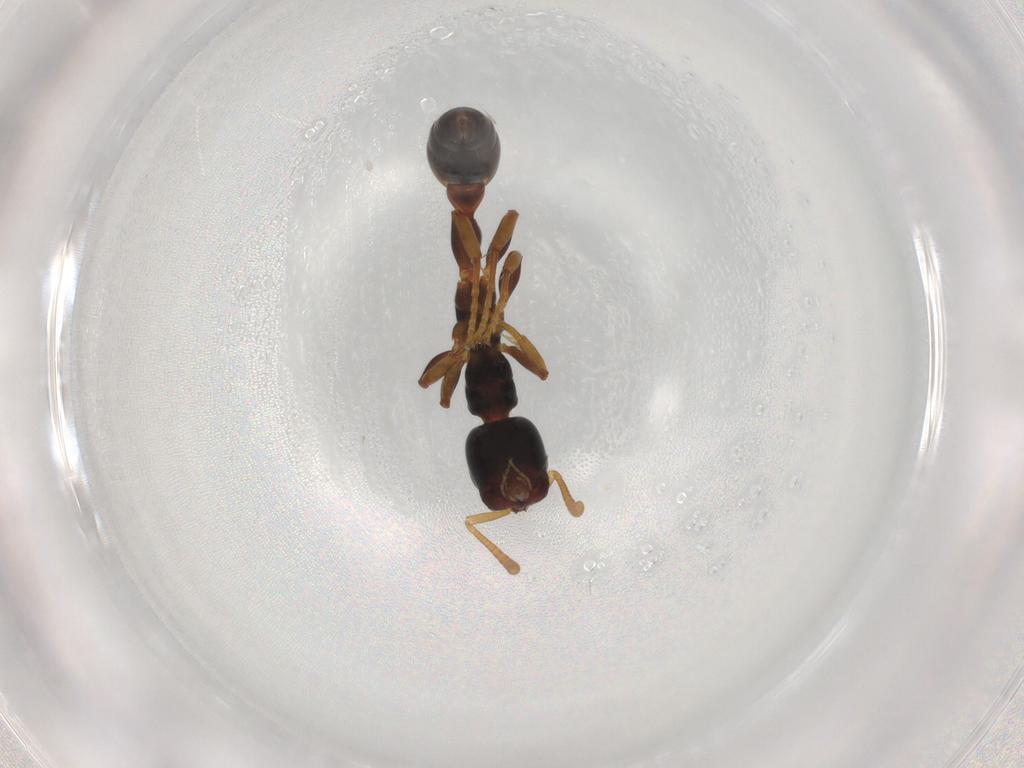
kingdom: Animalia
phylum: Arthropoda
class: Insecta
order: Hymenoptera
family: Formicidae
